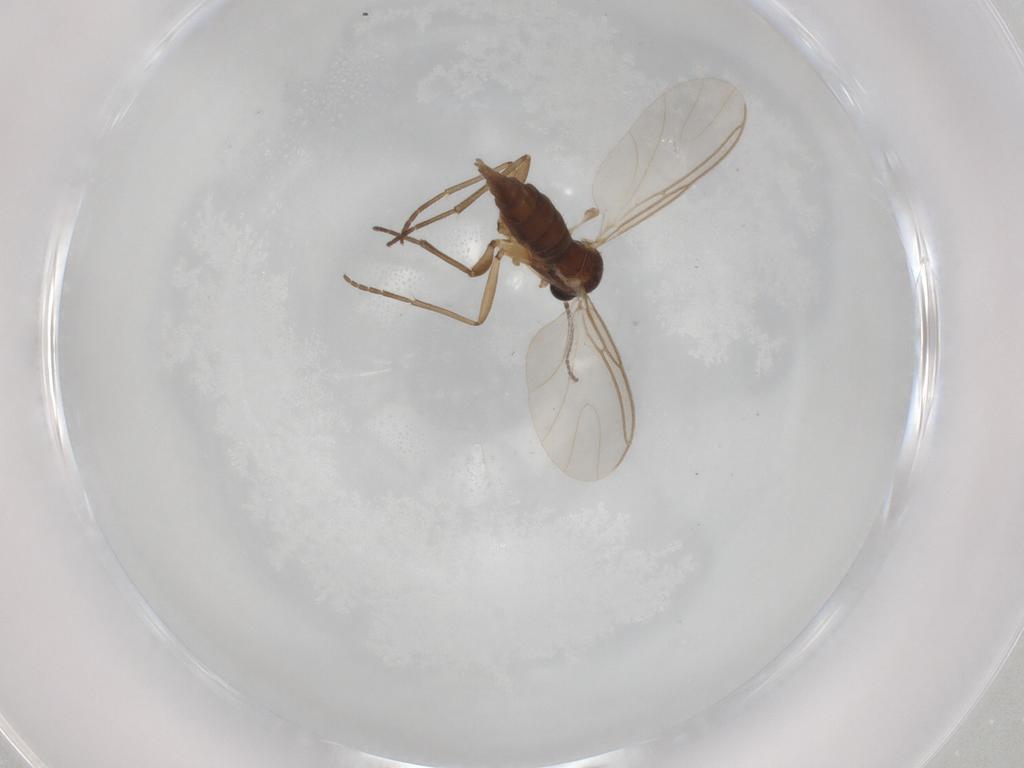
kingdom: Animalia
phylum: Arthropoda
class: Insecta
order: Diptera
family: Sciaridae
